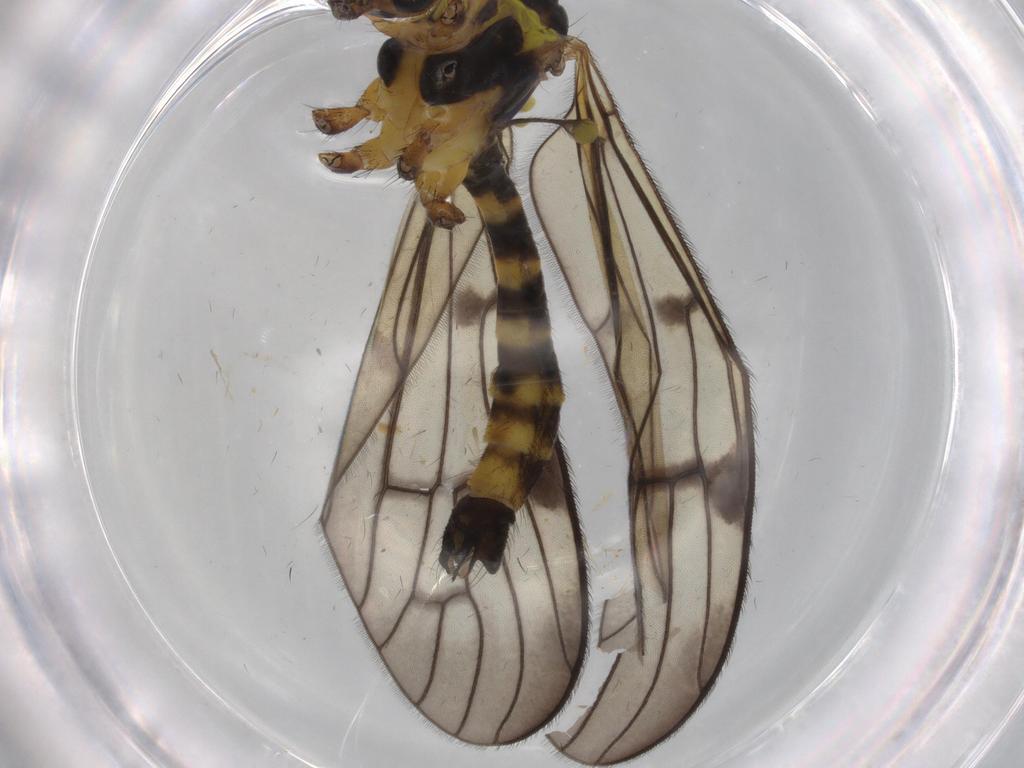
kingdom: Animalia
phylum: Arthropoda
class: Insecta
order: Diptera
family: Limoniidae
